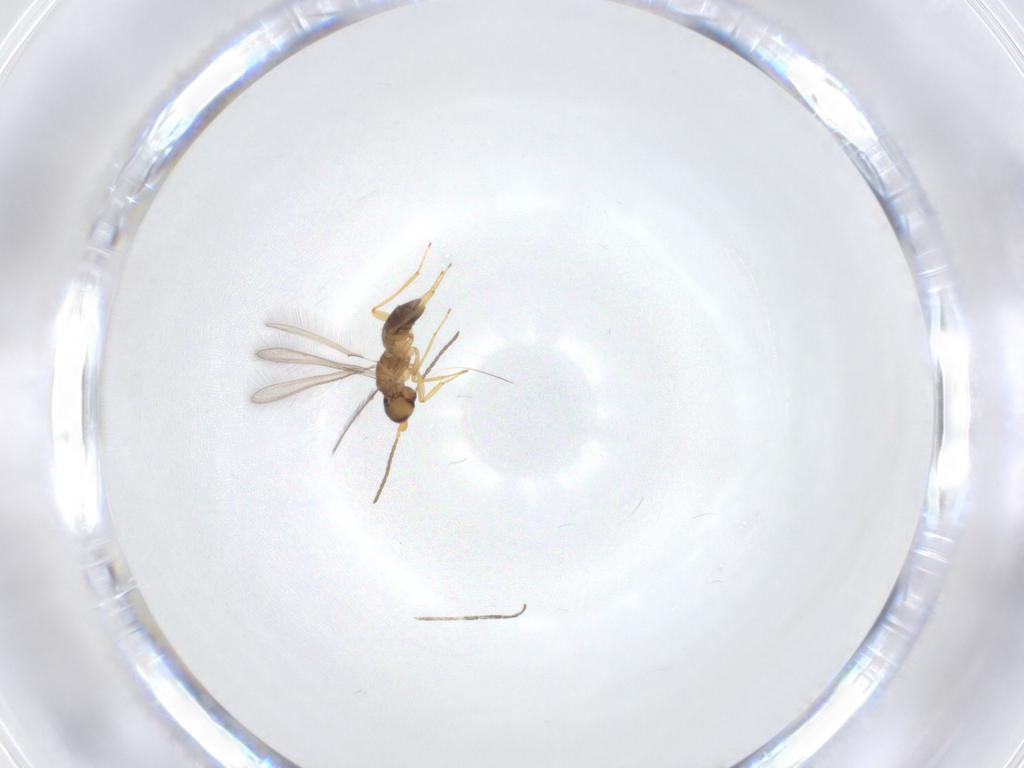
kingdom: Animalia
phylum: Arthropoda
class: Insecta
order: Hymenoptera
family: Mymaridae
